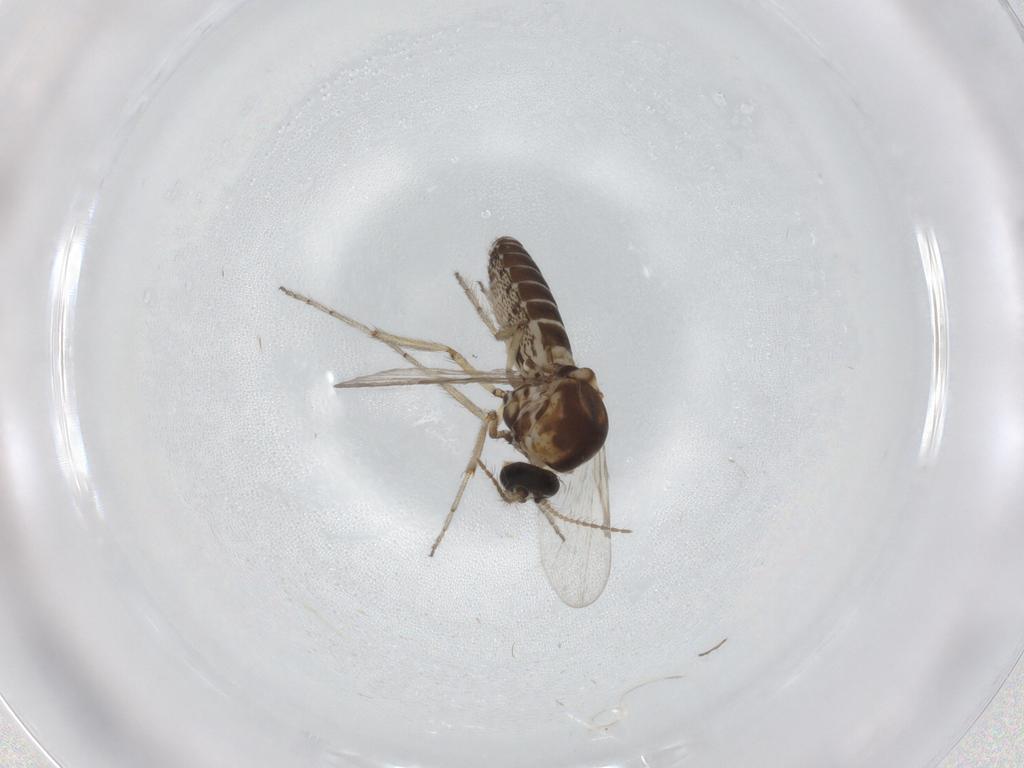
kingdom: Animalia
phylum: Arthropoda
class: Insecta
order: Diptera
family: Ceratopogonidae
